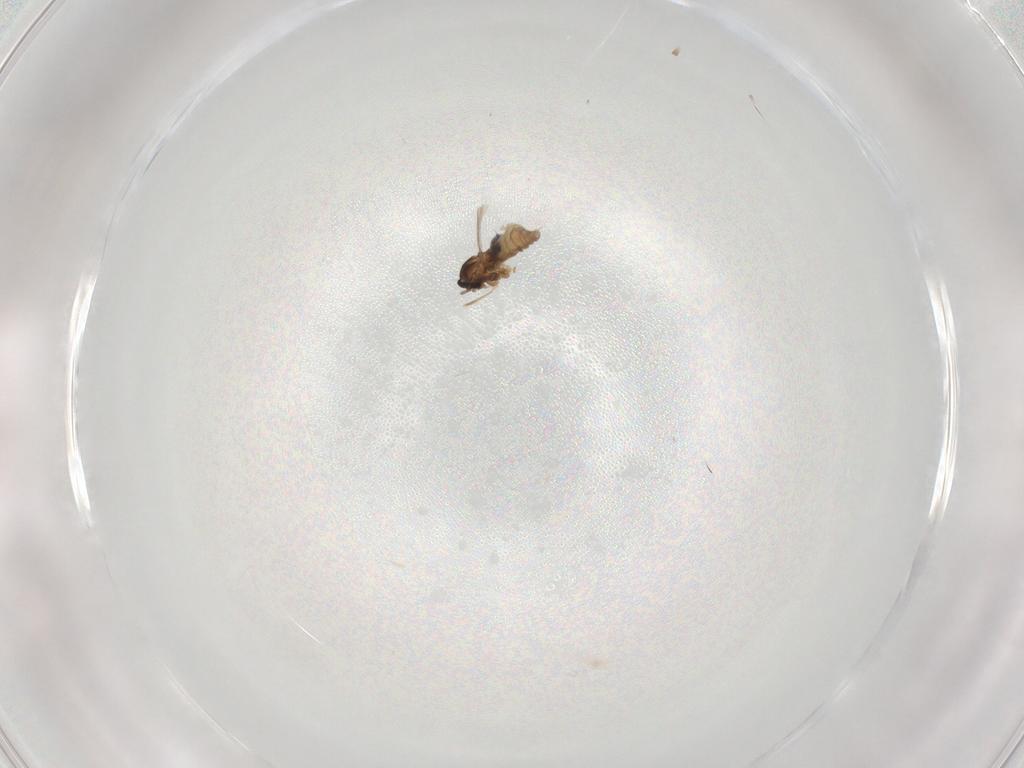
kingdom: Animalia
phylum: Arthropoda
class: Insecta
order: Diptera
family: Cecidomyiidae
